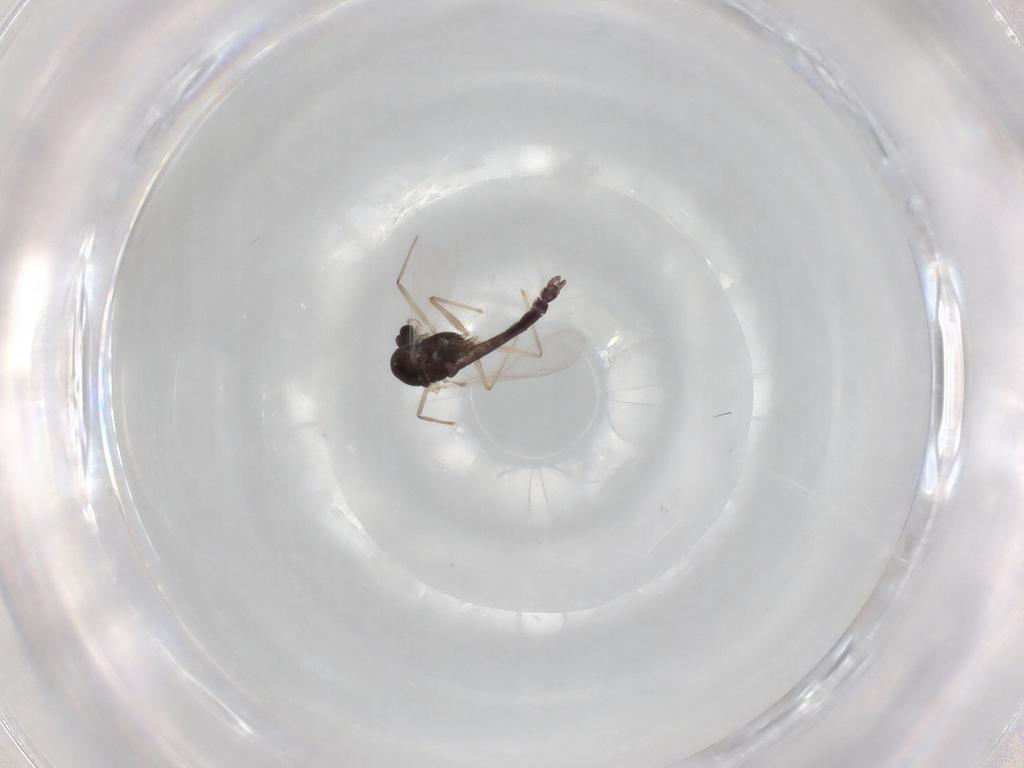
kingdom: Animalia
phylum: Arthropoda
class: Insecta
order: Diptera
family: Chironomidae
